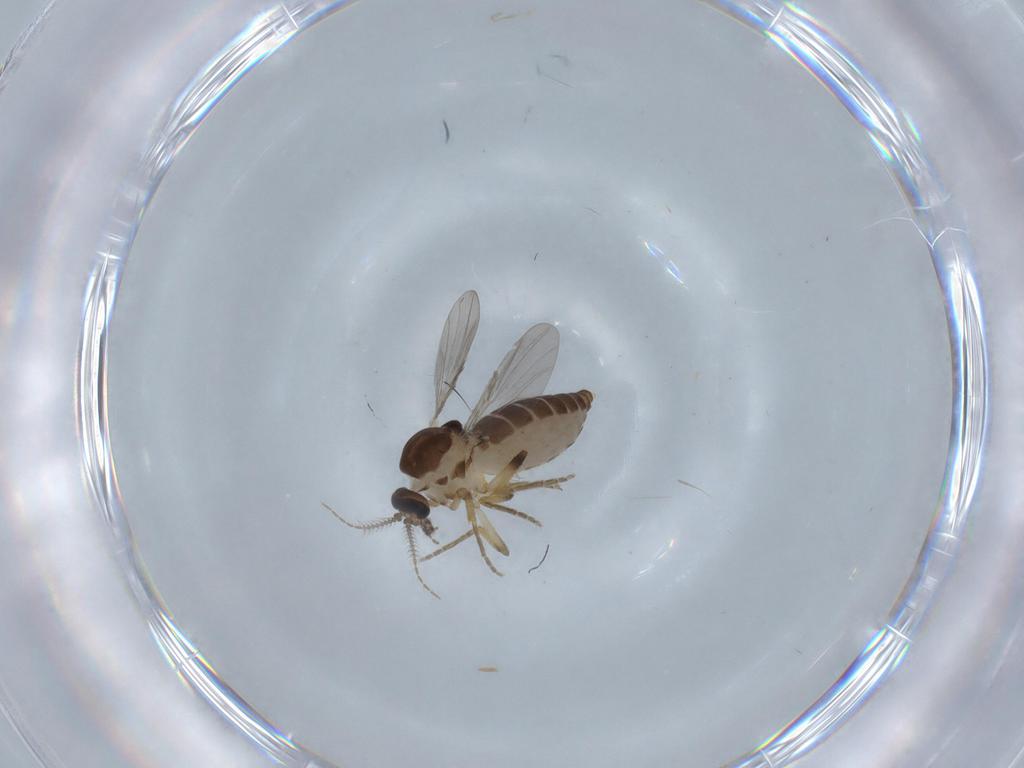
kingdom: Animalia
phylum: Arthropoda
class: Insecta
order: Diptera
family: Ceratopogonidae
